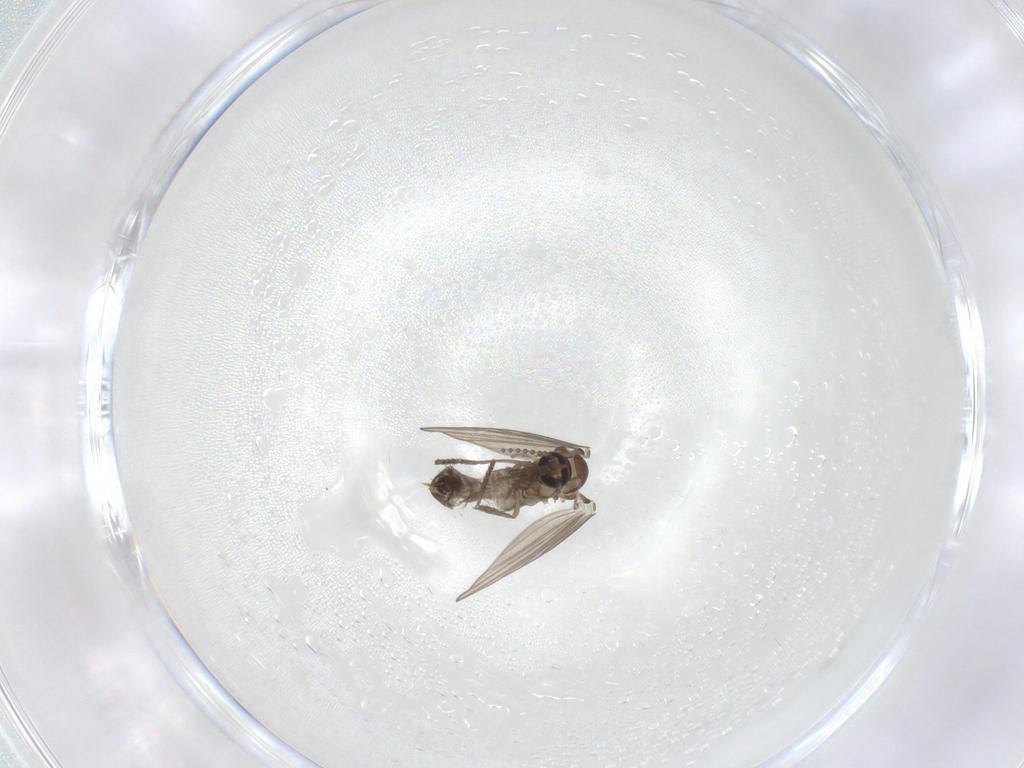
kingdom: Animalia
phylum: Arthropoda
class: Insecta
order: Diptera
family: Psychodidae
